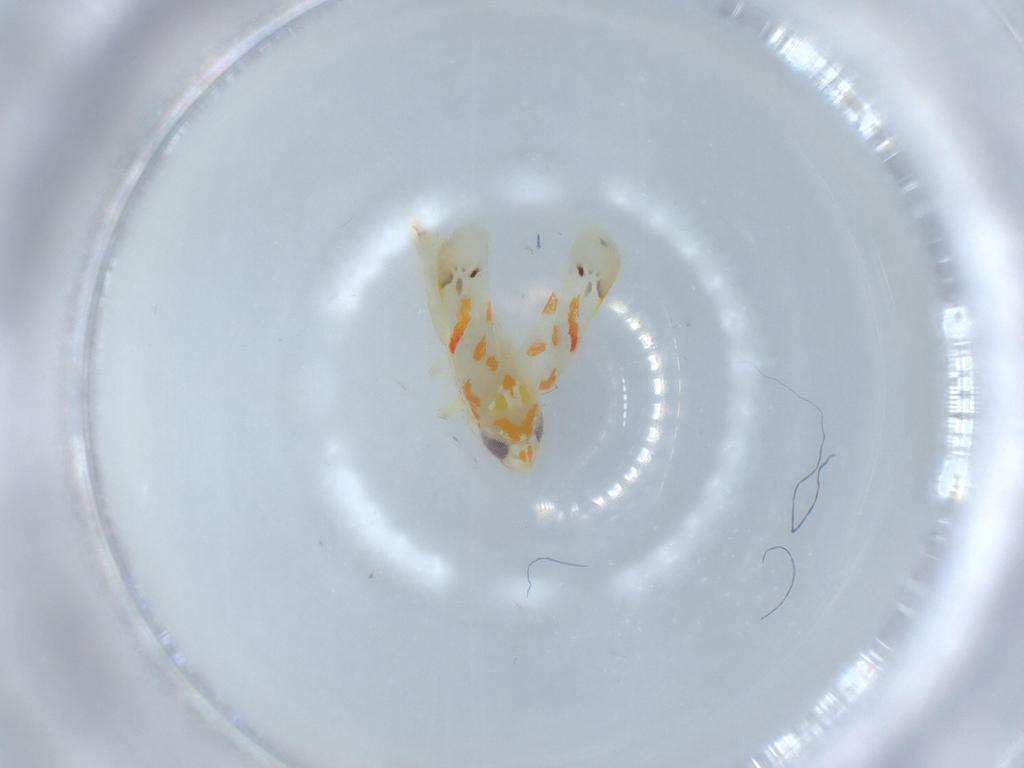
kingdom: Animalia
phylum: Arthropoda
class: Insecta
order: Hemiptera
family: Cicadellidae
